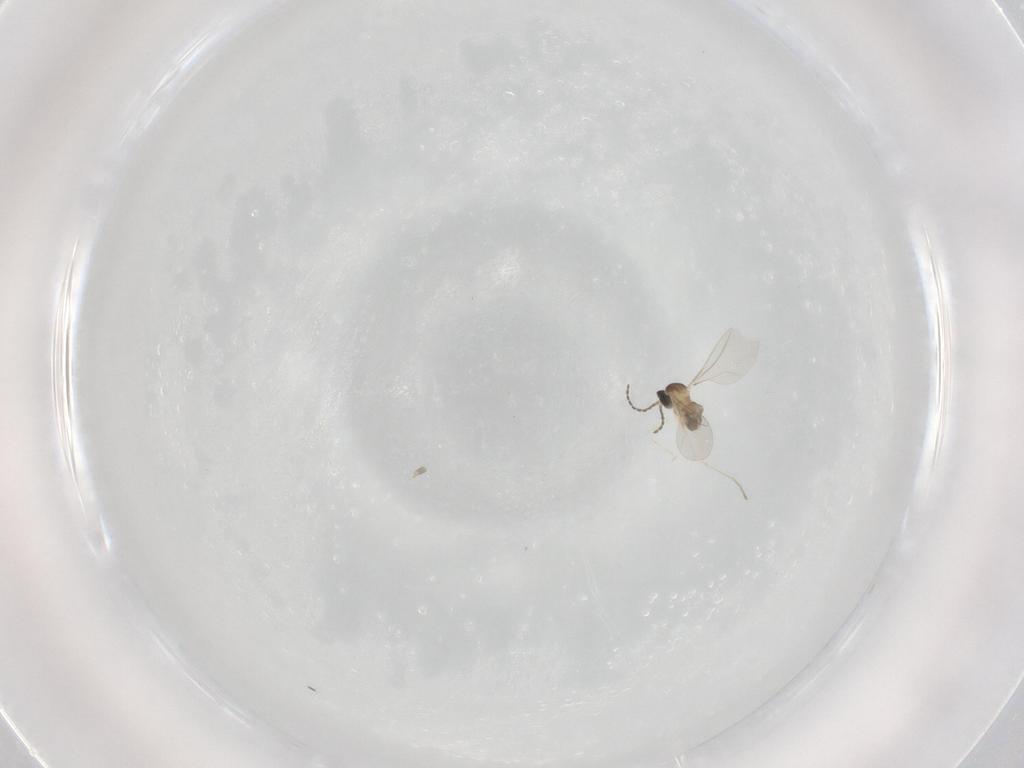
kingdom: Animalia
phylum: Arthropoda
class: Insecta
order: Diptera
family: Cecidomyiidae
